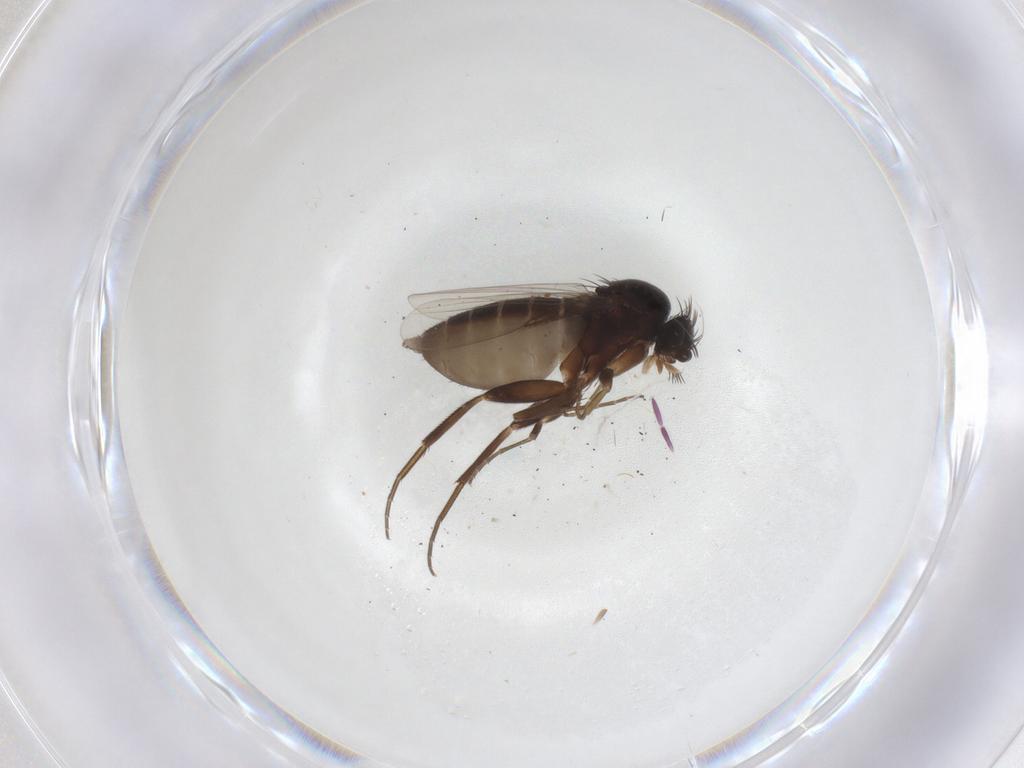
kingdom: Animalia
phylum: Arthropoda
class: Insecta
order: Diptera
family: Phoridae
